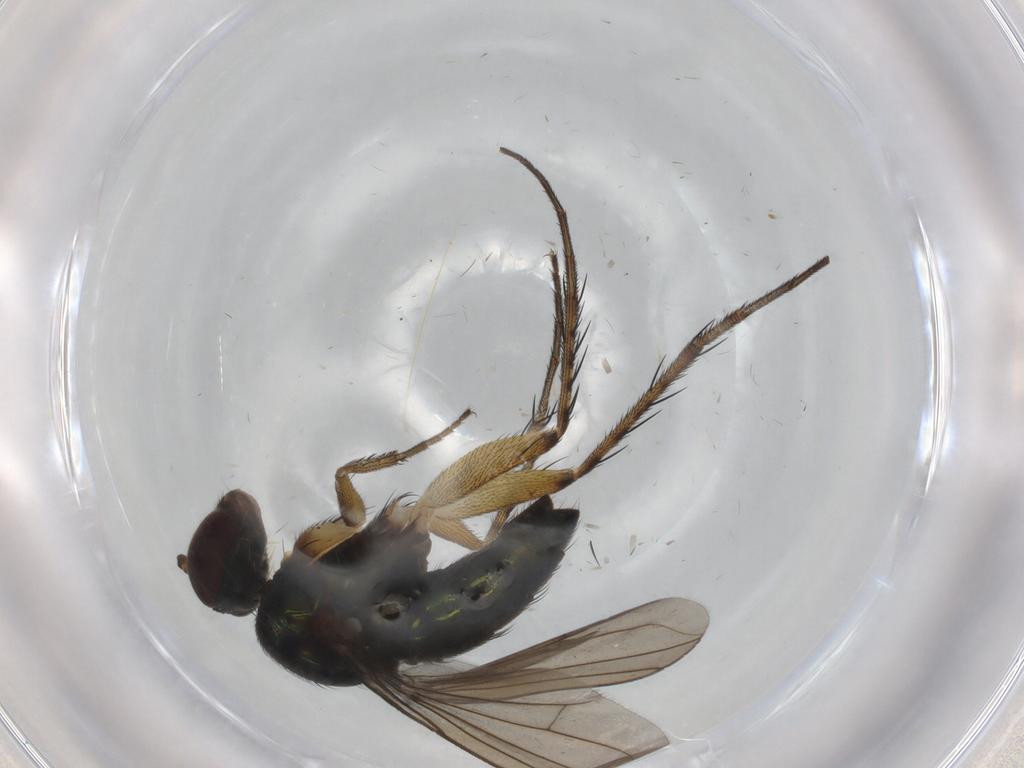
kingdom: Animalia
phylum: Arthropoda
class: Insecta
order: Diptera
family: Dolichopodidae
